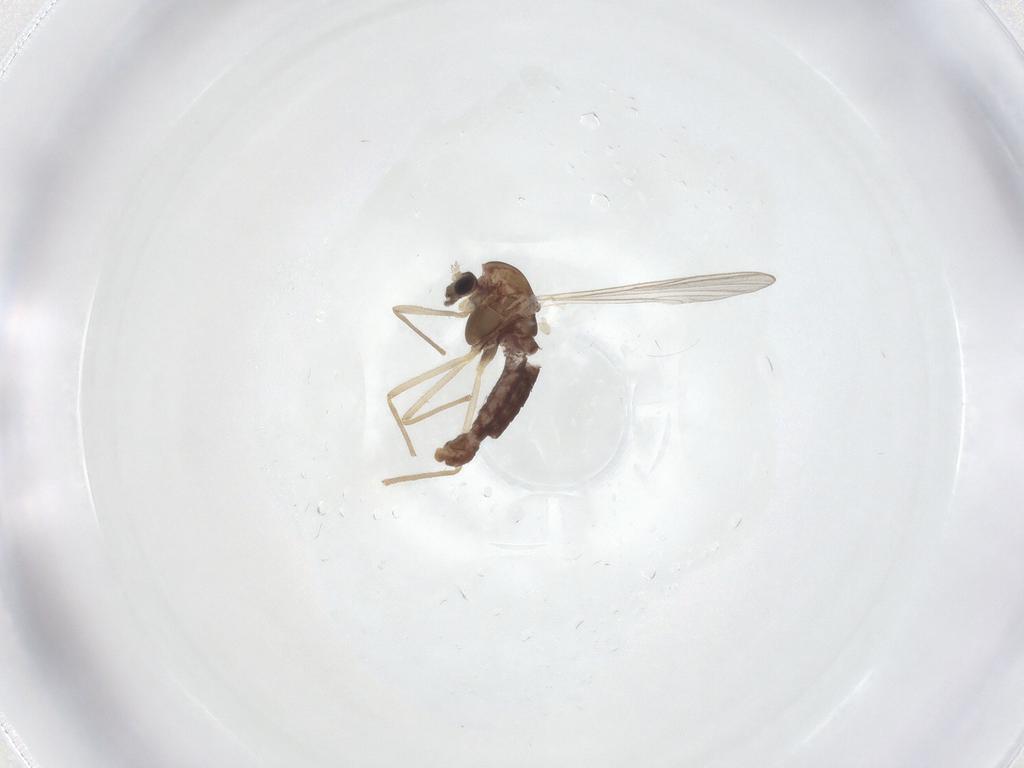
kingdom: Animalia
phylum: Arthropoda
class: Insecta
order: Diptera
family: Chironomidae
